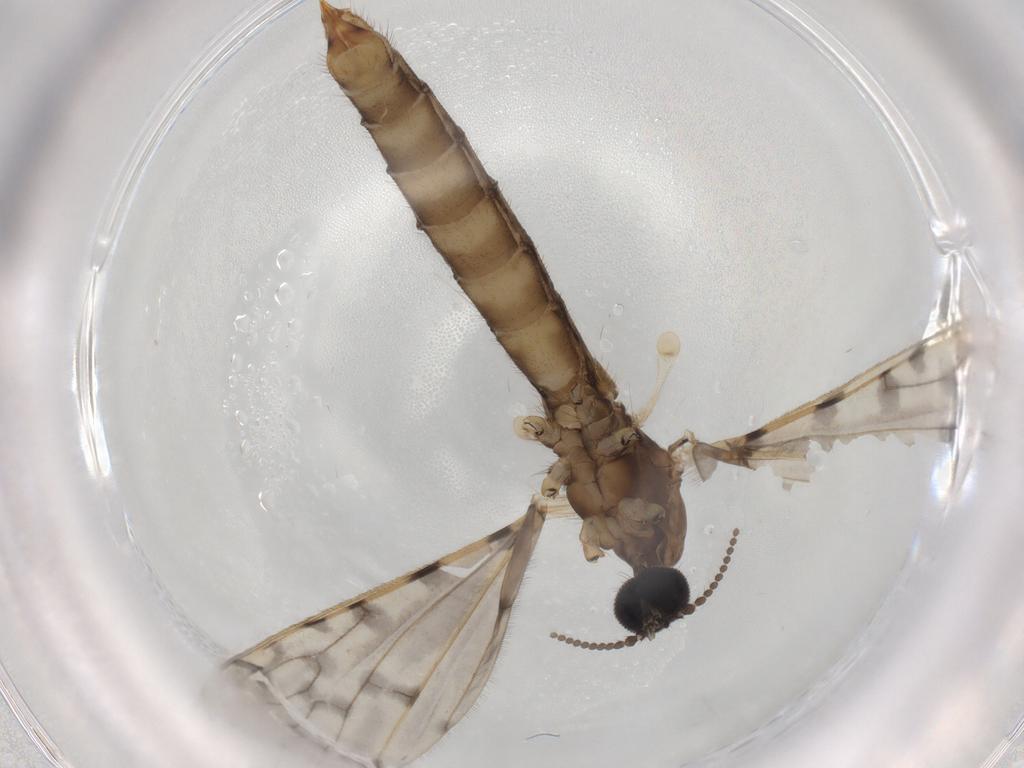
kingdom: Animalia
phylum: Arthropoda
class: Insecta
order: Diptera
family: Limoniidae
